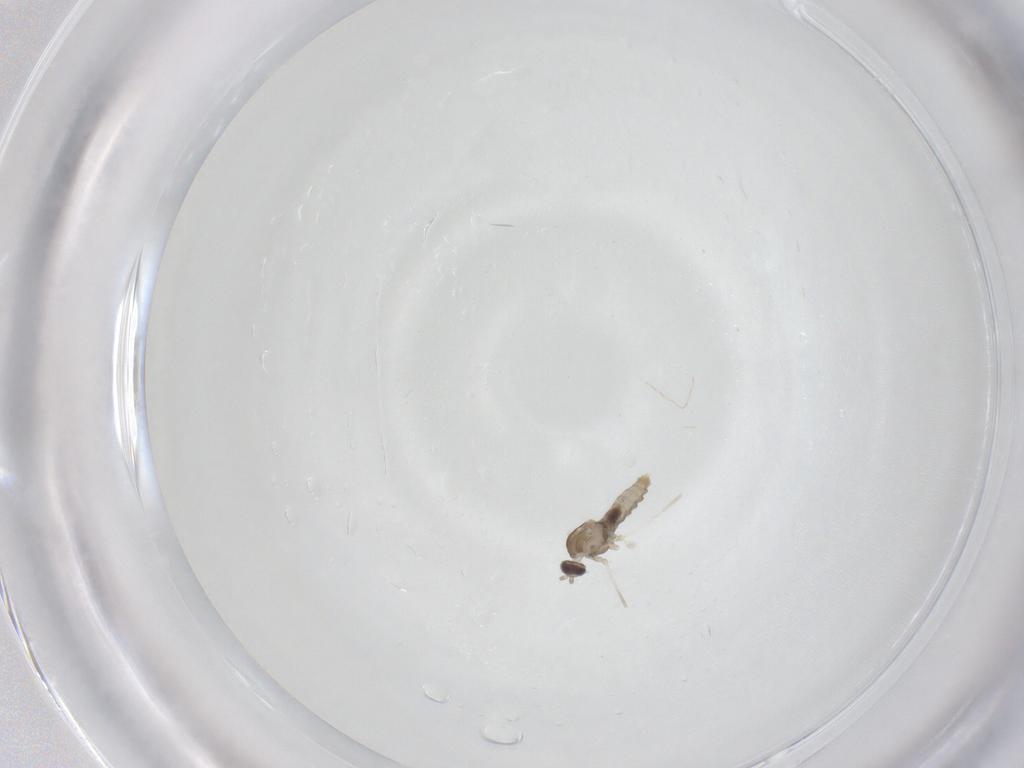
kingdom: Animalia
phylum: Arthropoda
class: Insecta
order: Diptera
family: Cecidomyiidae
